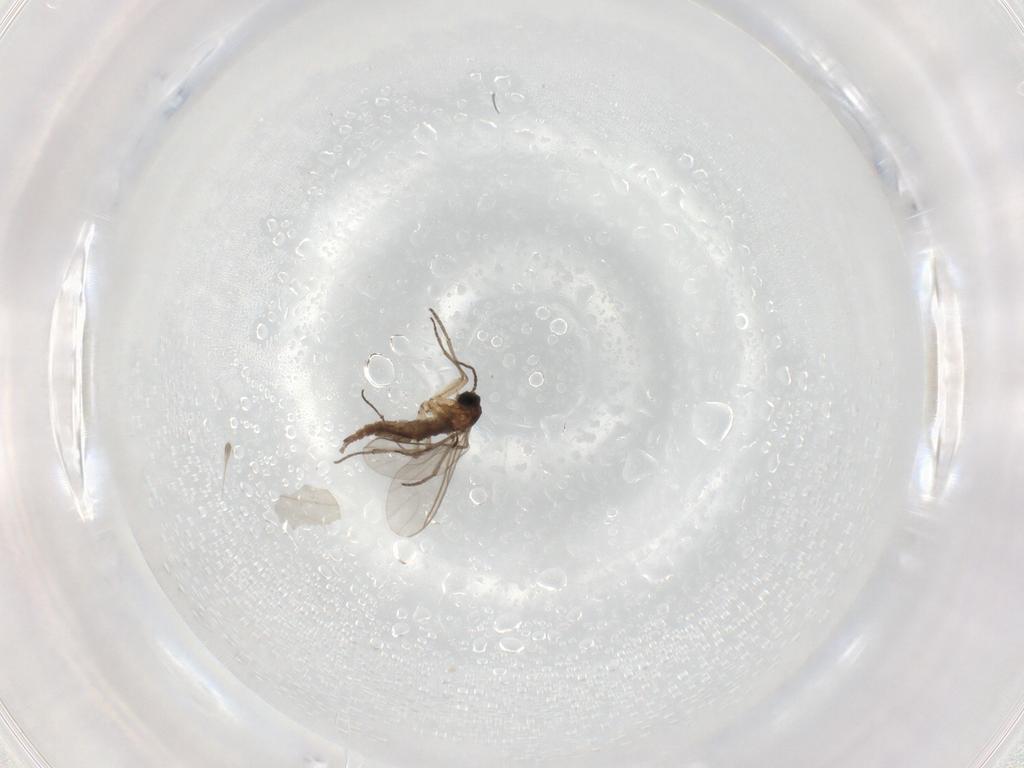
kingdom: Animalia
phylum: Arthropoda
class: Insecta
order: Diptera
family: Sciaridae
